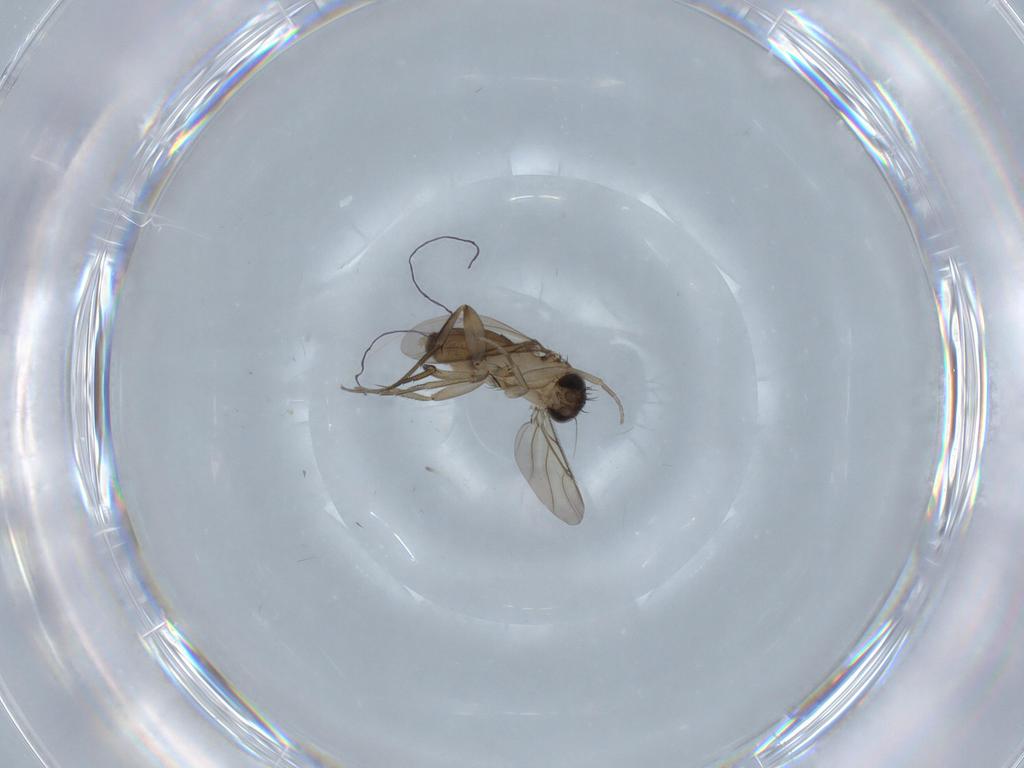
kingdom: Animalia
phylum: Arthropoda
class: Insecta
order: Diptera
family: Phoridae
